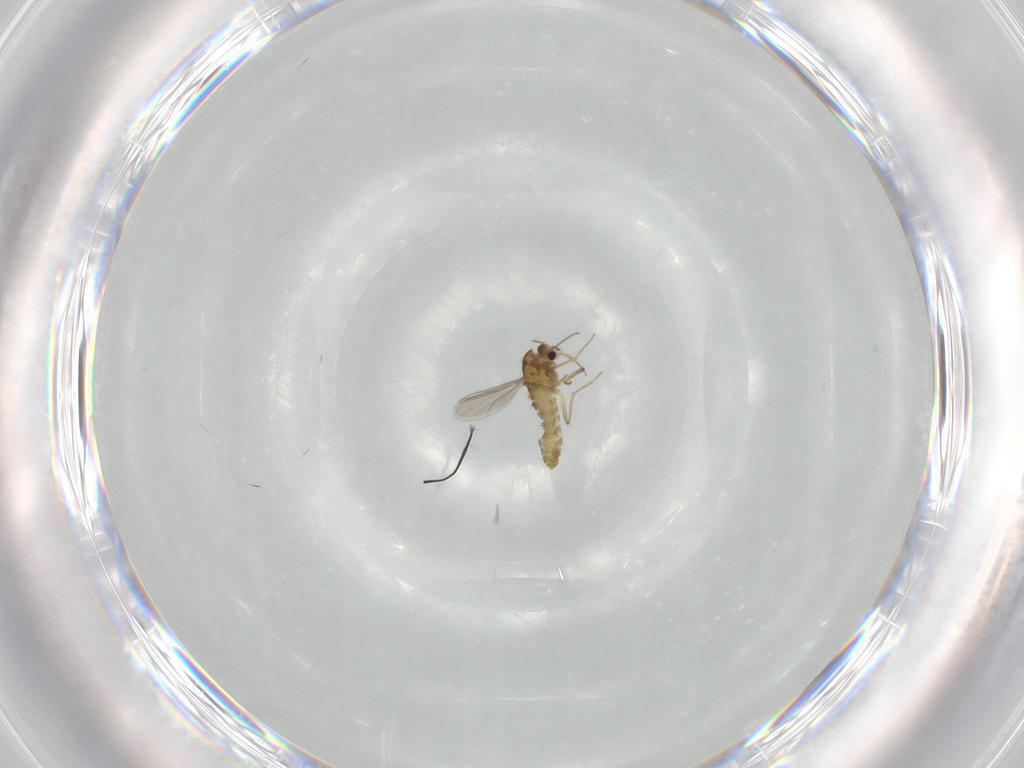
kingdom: Animalia
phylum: Arthropoda
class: Insecta
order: Diptera
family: Chironomidae
